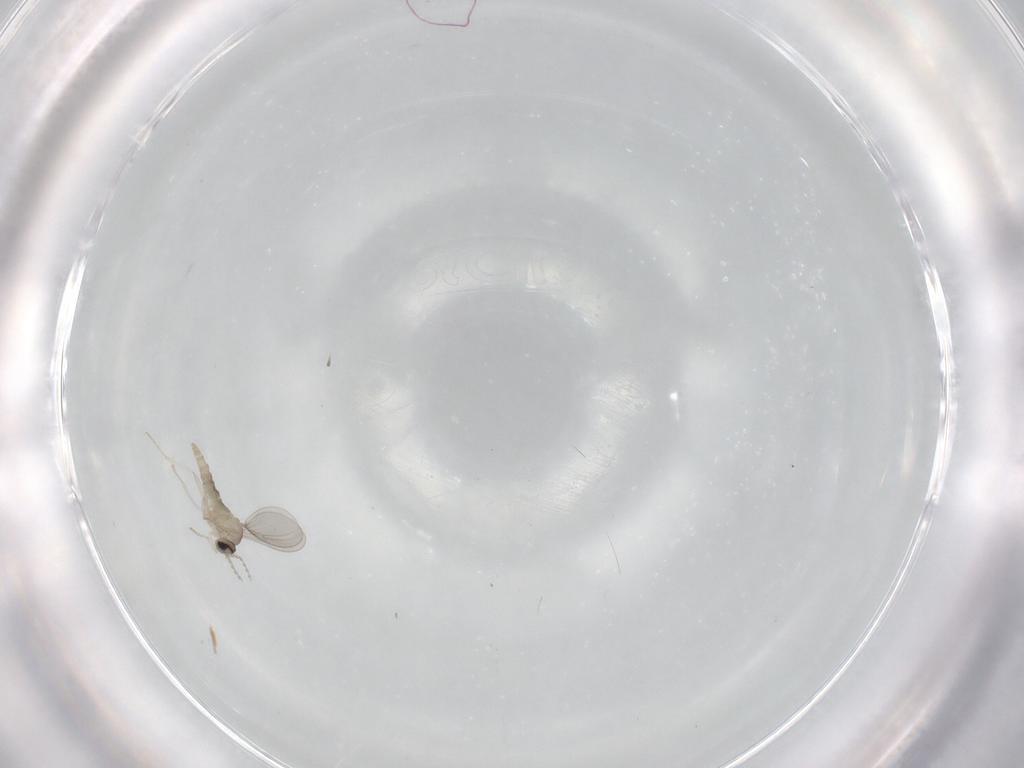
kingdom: Animalia
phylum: Arthropoda
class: Insecta
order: Diptera
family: Cecidomyiidae
